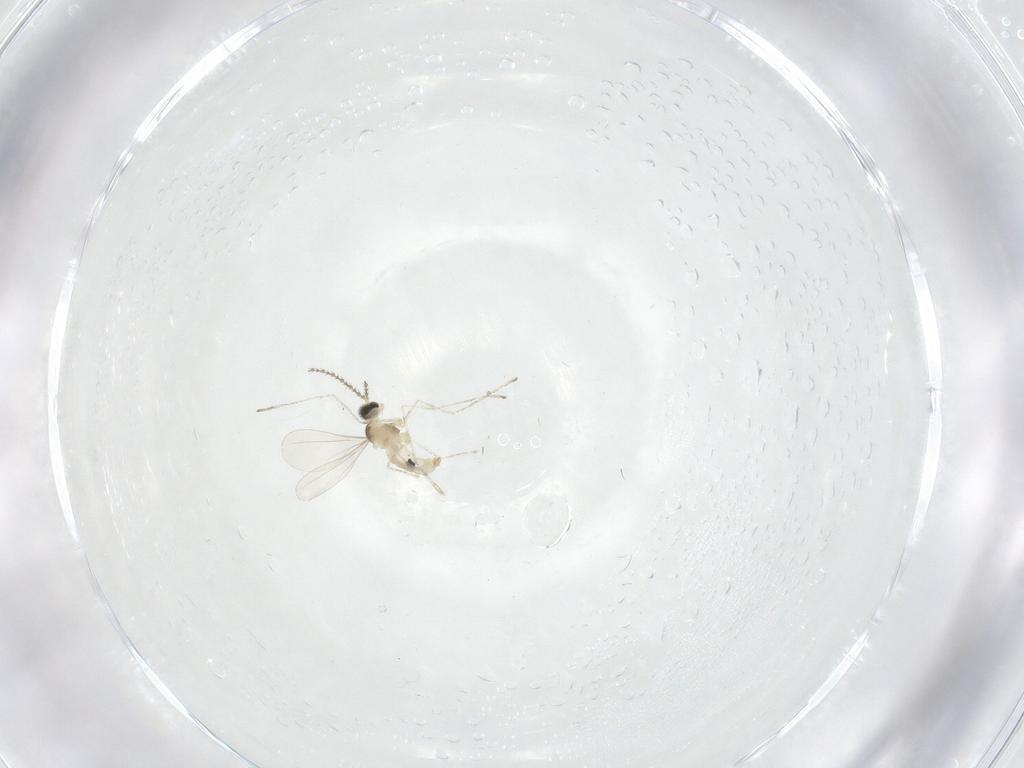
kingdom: Animalia
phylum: Arthropoda
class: Insecta
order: Diptera
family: Cecidomyiidae
